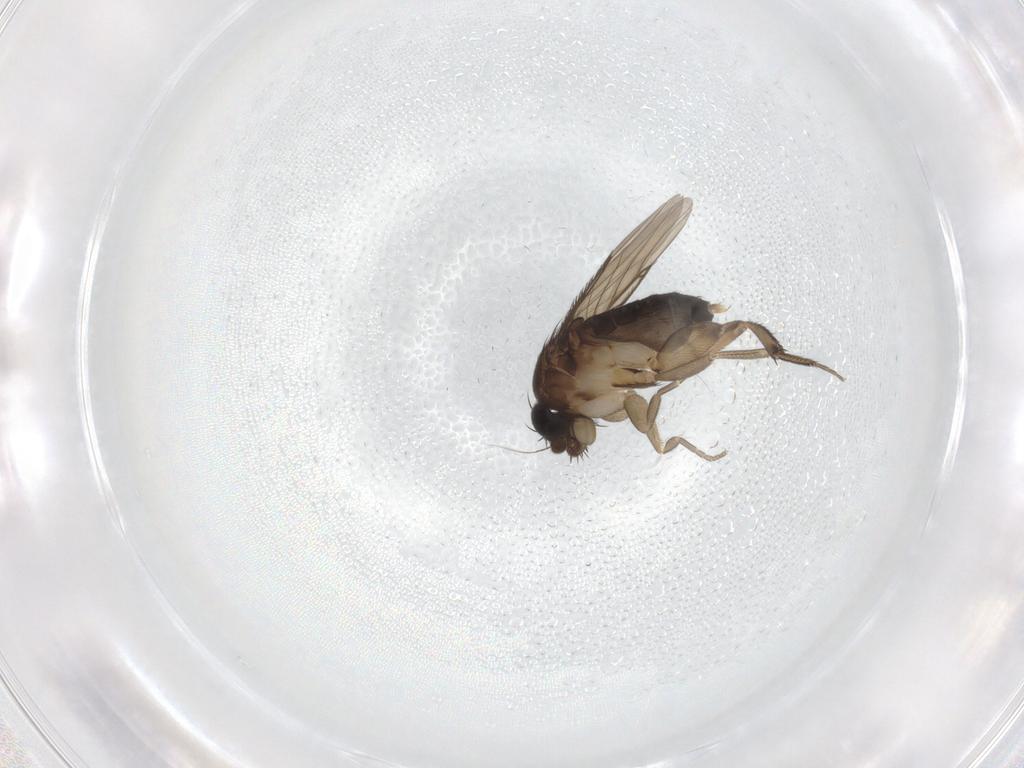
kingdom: Animalia
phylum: Arthropoda
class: Insecta
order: Diptera
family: Phoridae
